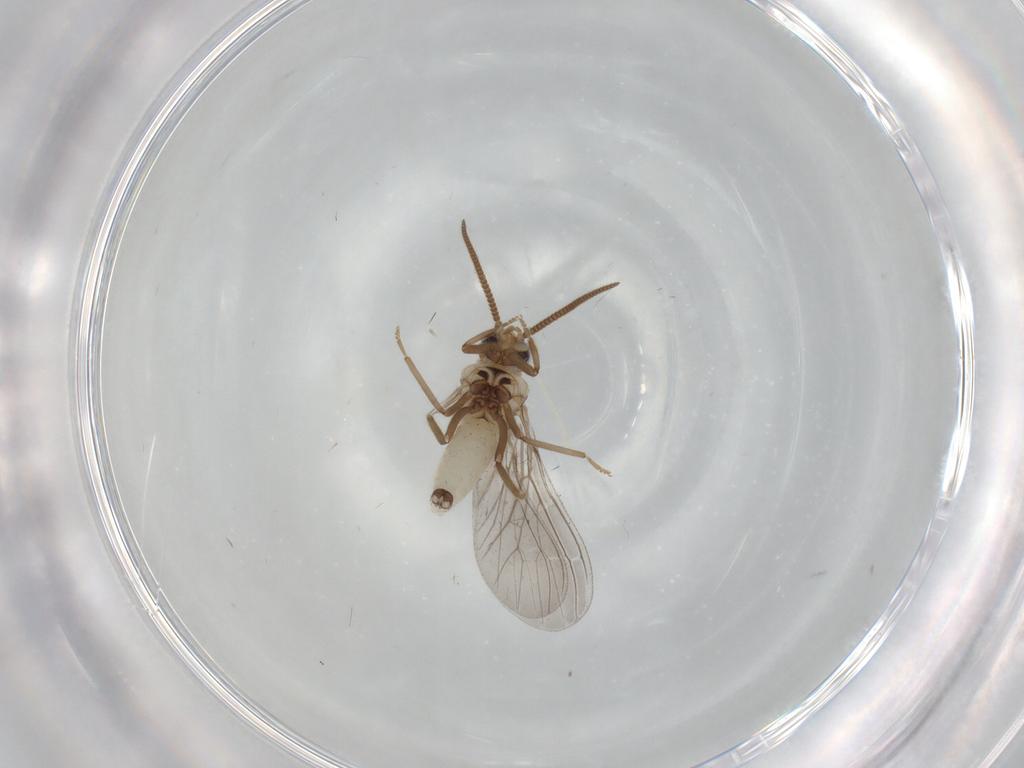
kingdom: Animalia
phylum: Arthropoda
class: Insecta
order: Neuroptera
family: Coniopterygidae
